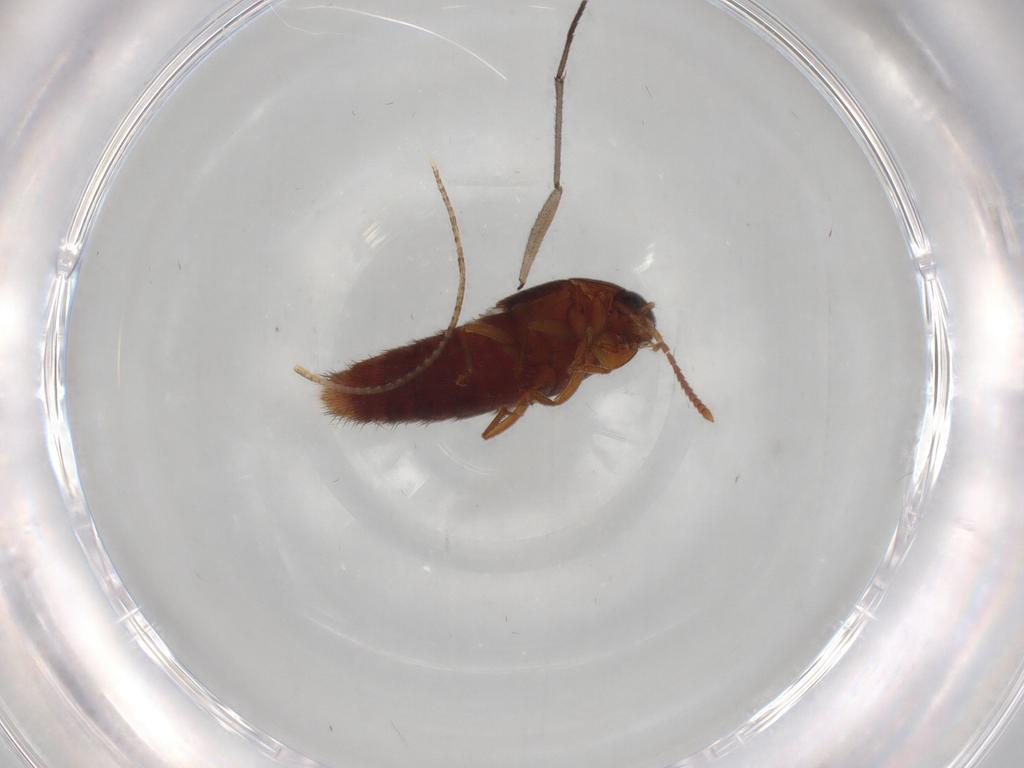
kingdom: Animalia
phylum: Arthropoda
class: Insecta
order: Coleoptera
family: Staphylinidae
